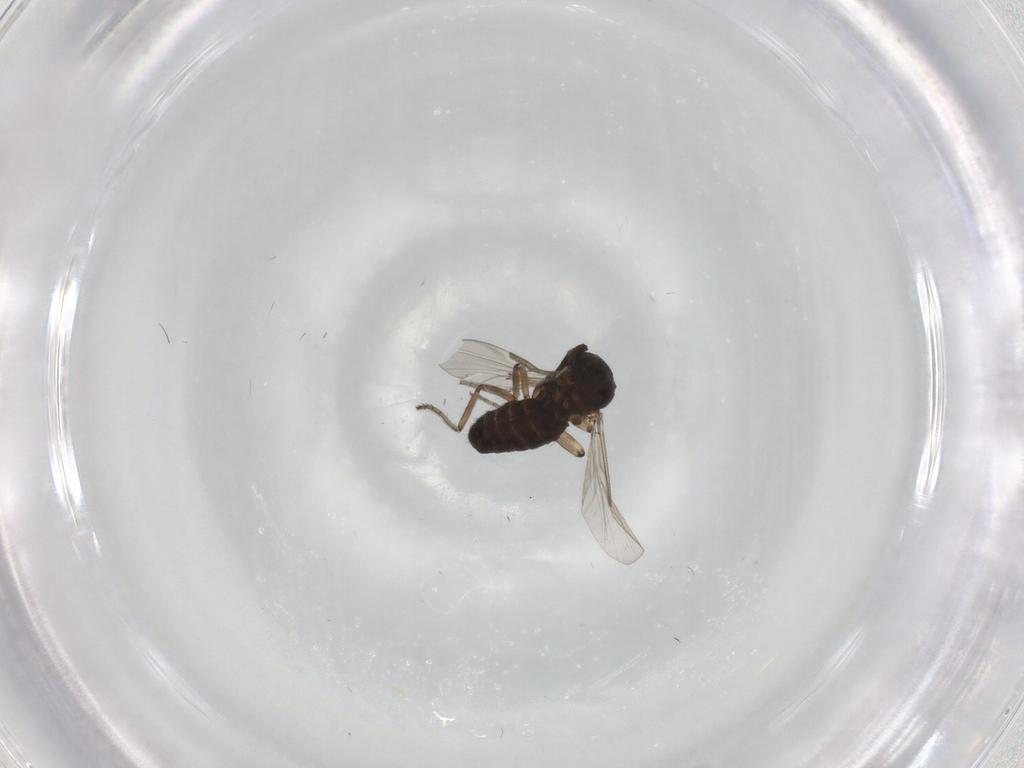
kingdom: Animalia
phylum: Arthropoda
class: Insecta
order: Diptera
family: Ceratopogonidae
